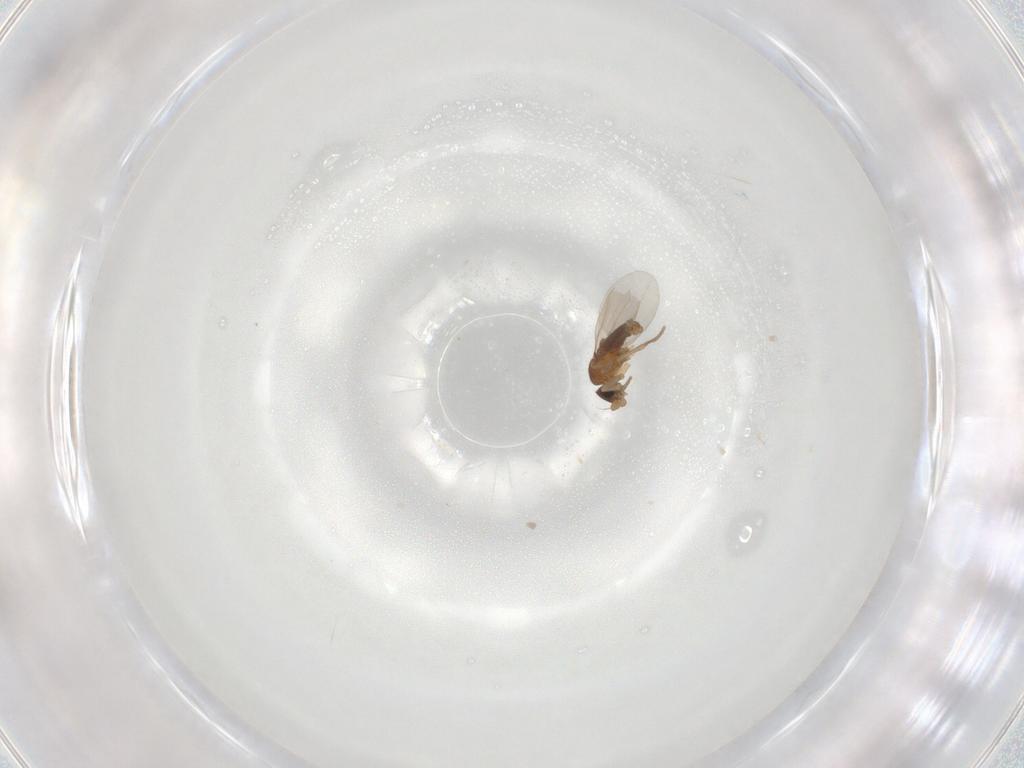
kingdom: Animalia
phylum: Arthropoda
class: Insecta
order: Diptera
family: Phoridae
